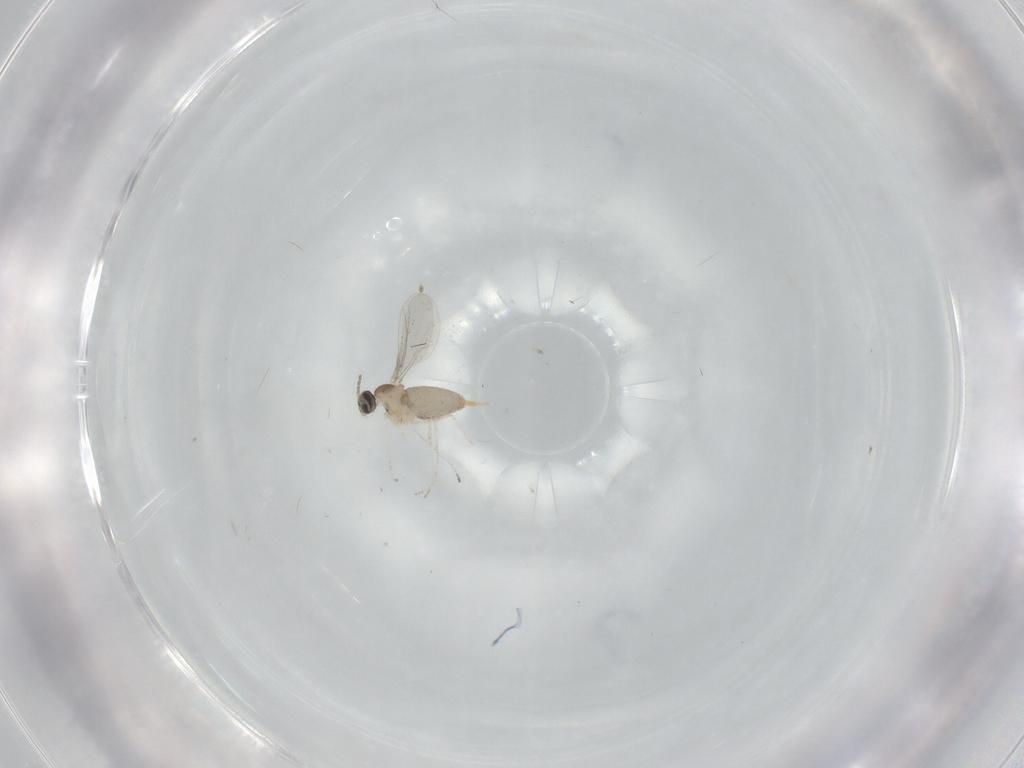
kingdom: Animalia
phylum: Arthropoda
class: Insecta
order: Diptera
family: Cecidomyiidae
